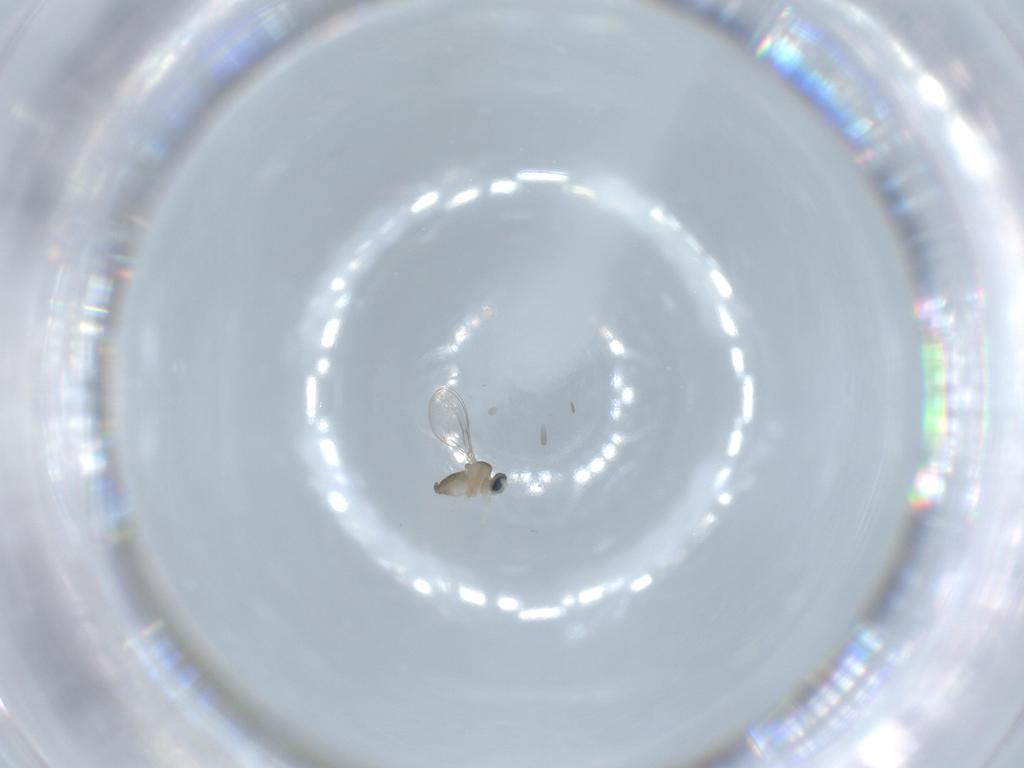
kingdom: Animalia
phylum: Arthropoda
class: Insecta
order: Diptera
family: Cecidomyiidae
